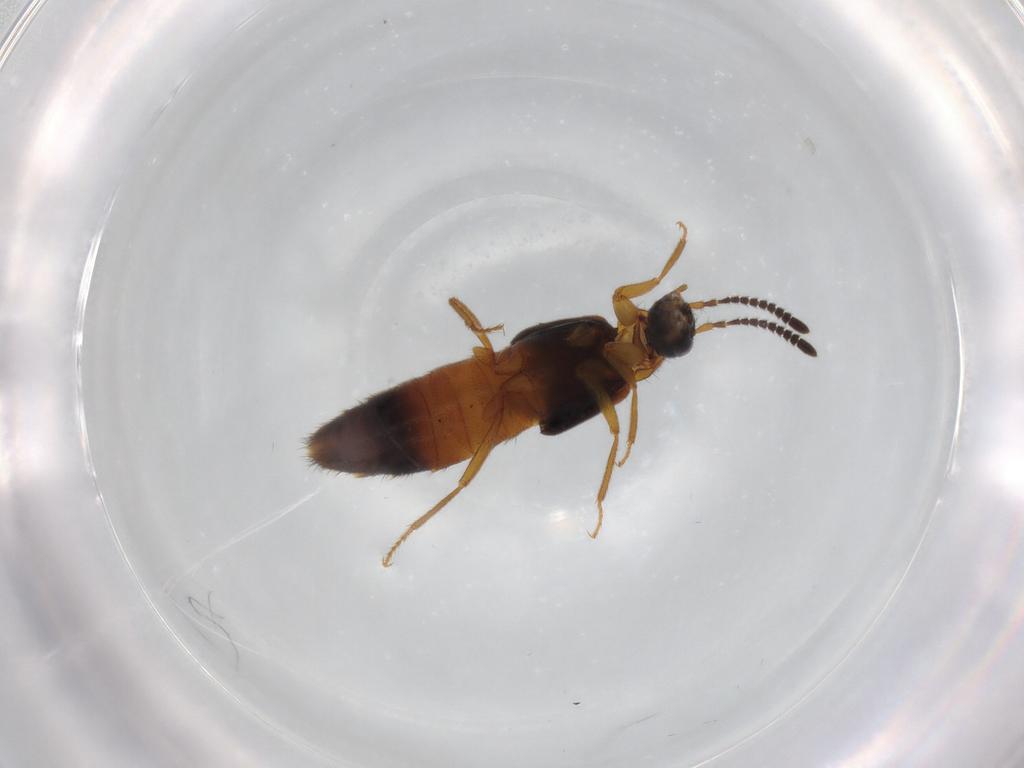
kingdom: Animalia
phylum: Arthropoda
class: Insecta
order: Coleoptera
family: Staphylinidae
